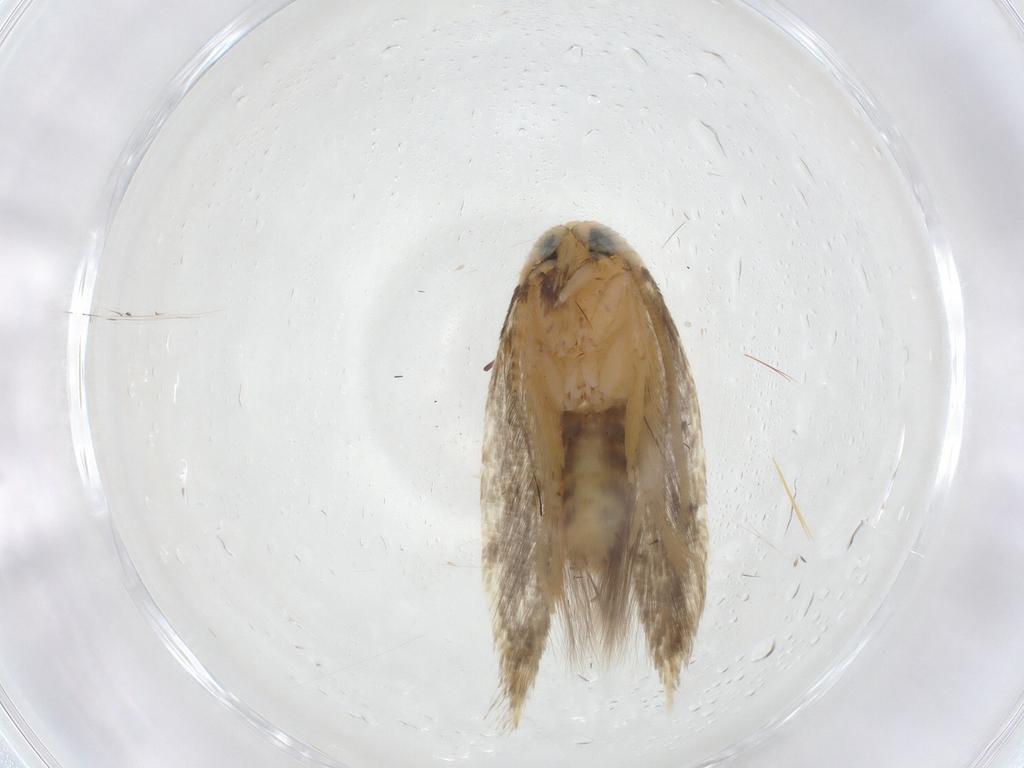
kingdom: Animalia
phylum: Arthropoda
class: Insecta
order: Lepidoptera
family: Opostegidae
